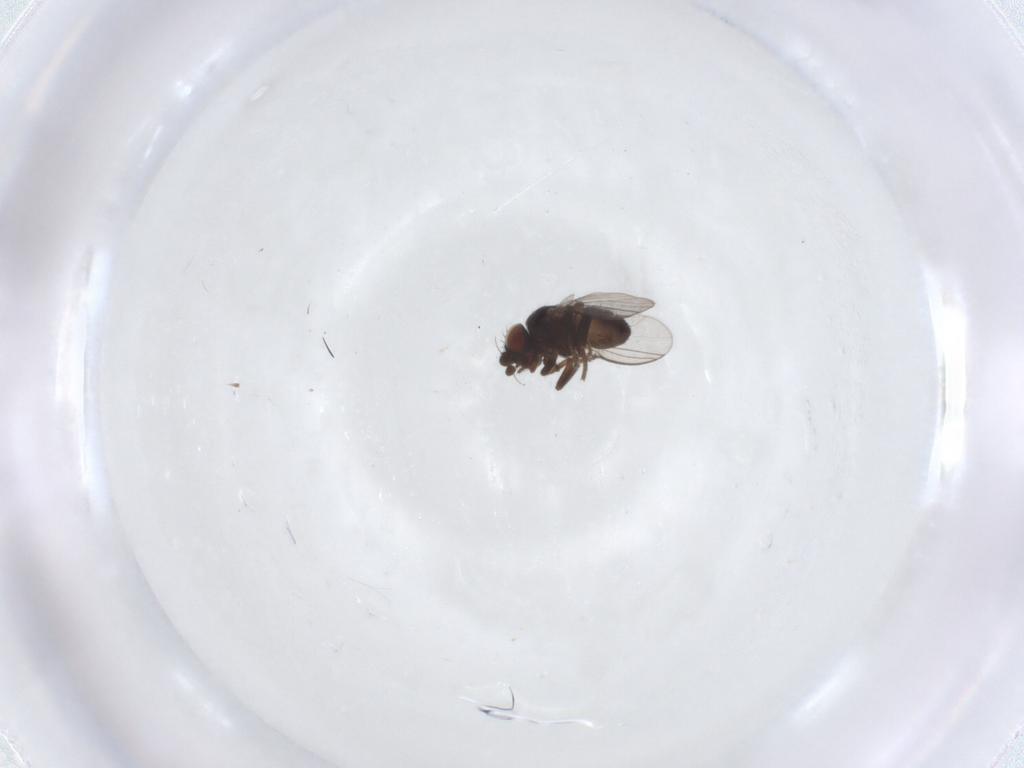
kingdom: Animalia
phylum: Arthropoda
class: Insecta
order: Diptera
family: Milichiidae
